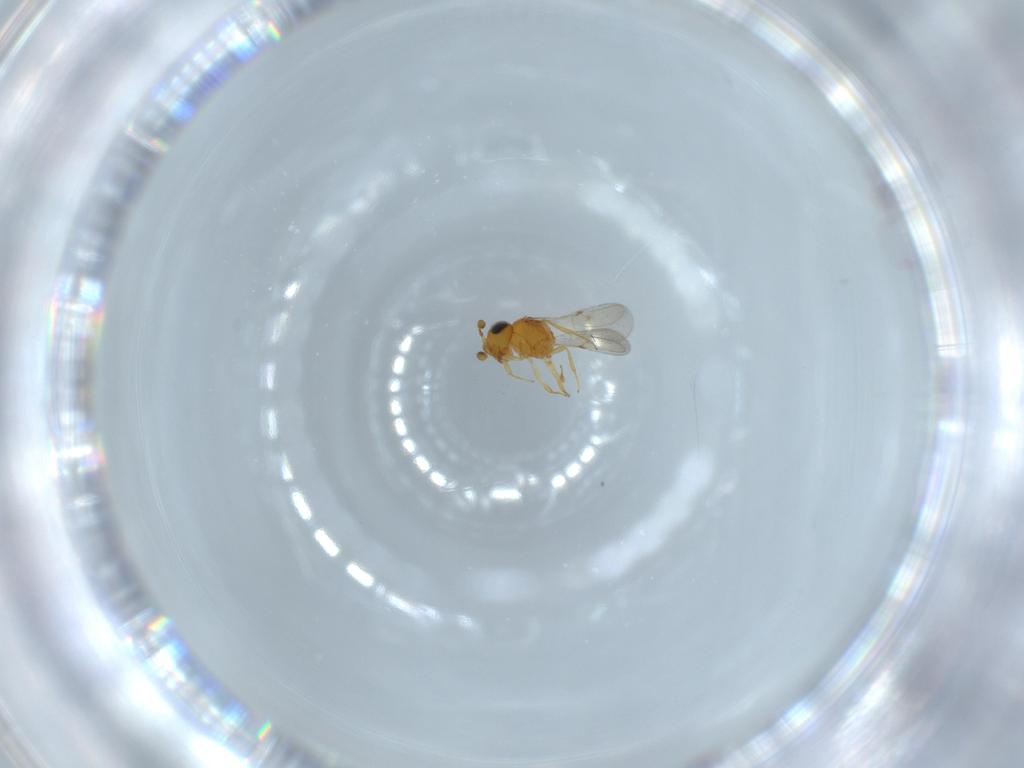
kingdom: Animalia
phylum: Arthropoda
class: Insecta
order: Hymenoptera
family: Scelionidae
